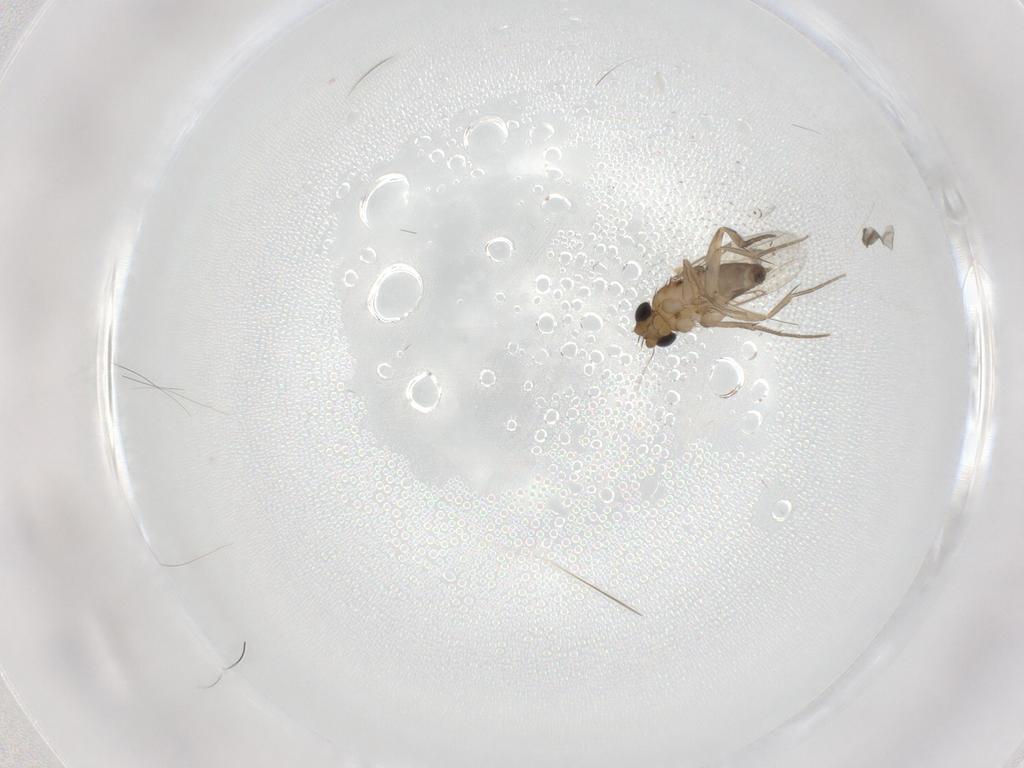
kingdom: Animalia
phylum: Arthropoda
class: Insecta
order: Diptera
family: Phoridae
